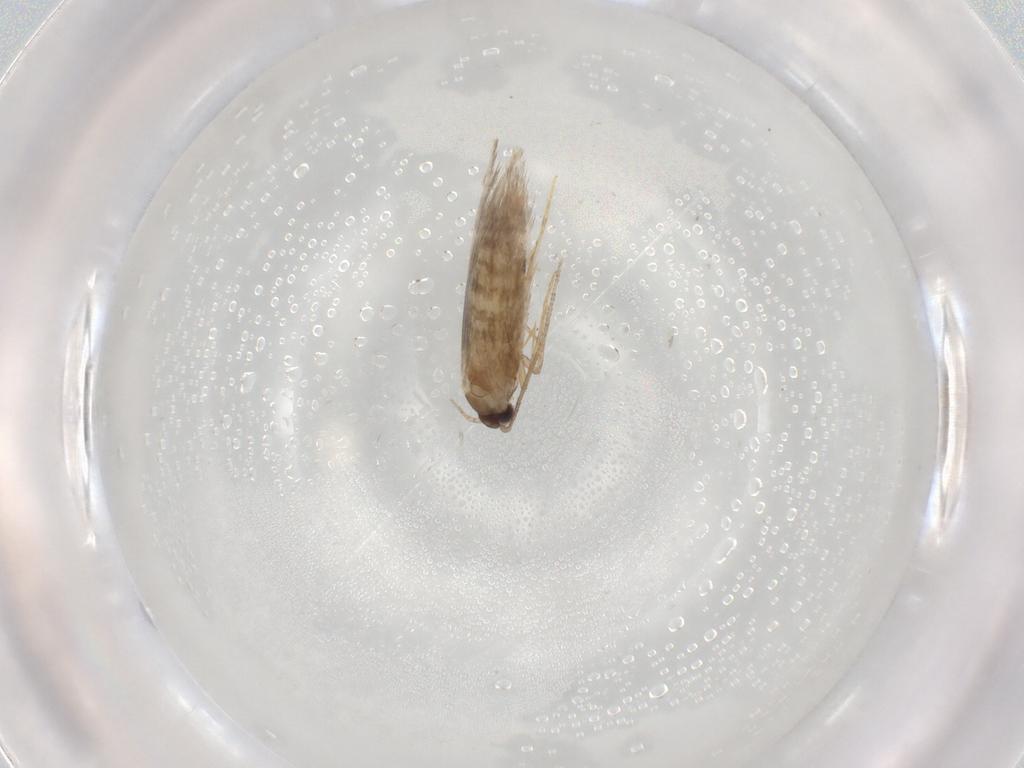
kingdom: Animalia
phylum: Arthropoda
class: Insecta
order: Lepidoptera
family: Tineidae
